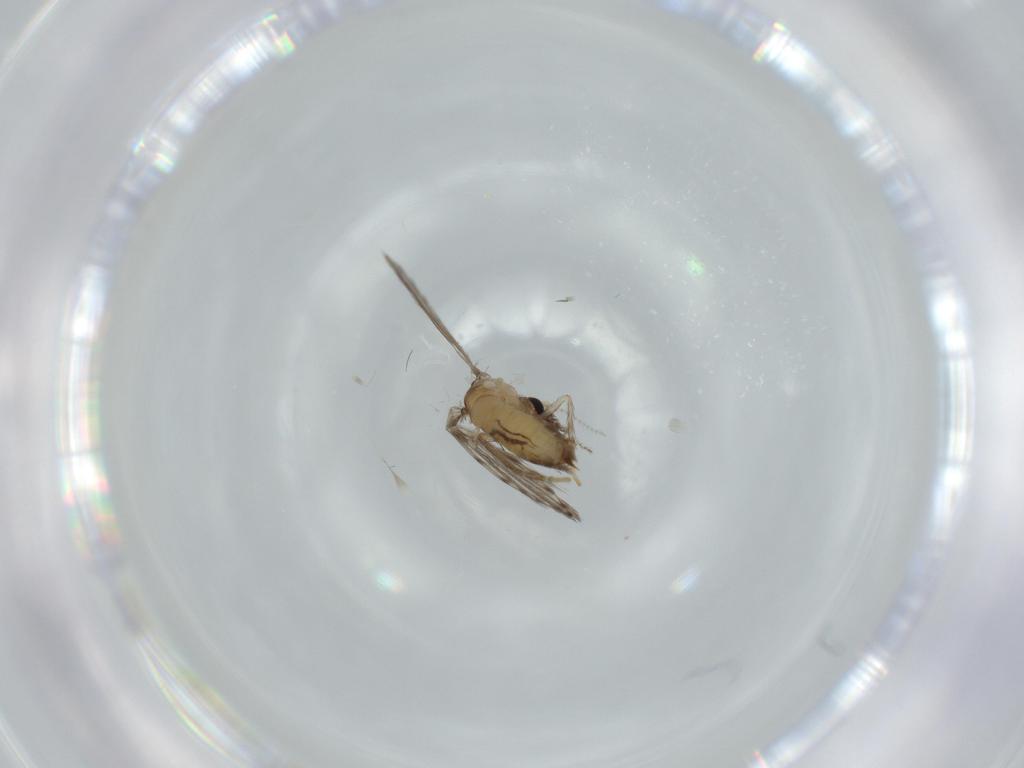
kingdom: Animalia
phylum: Arthropoda
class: Insecta
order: Diptera
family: Psychodidae
